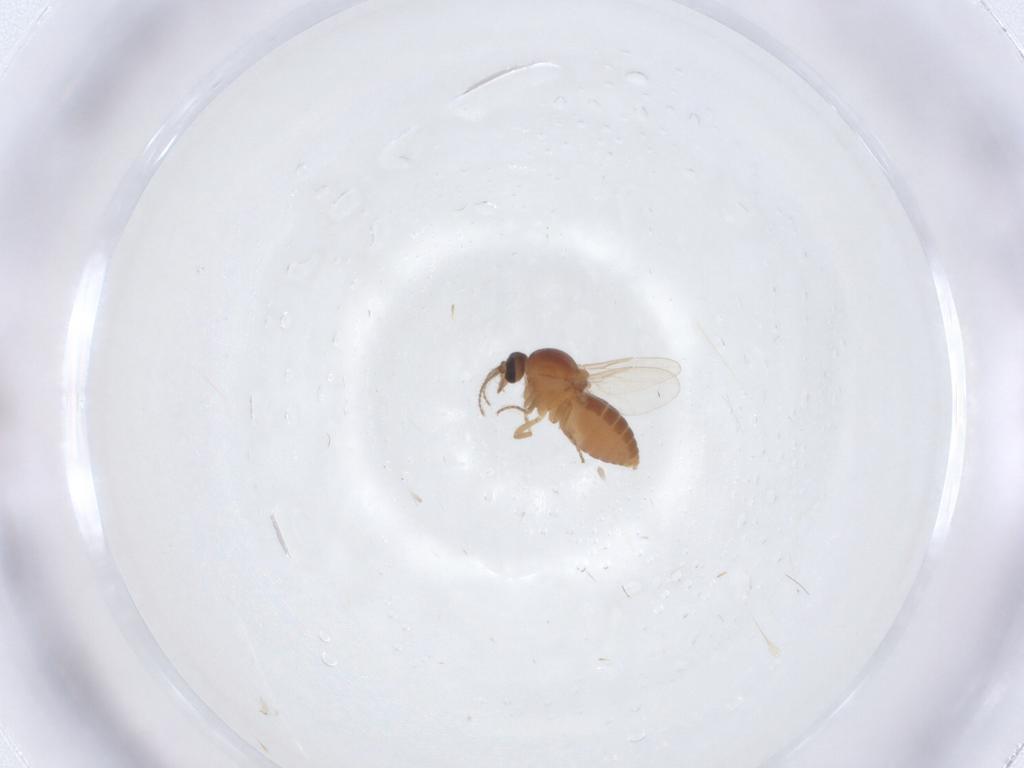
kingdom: Animalia
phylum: Arthropoda
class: Insecta
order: Diptera
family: Ceratopogonidae
